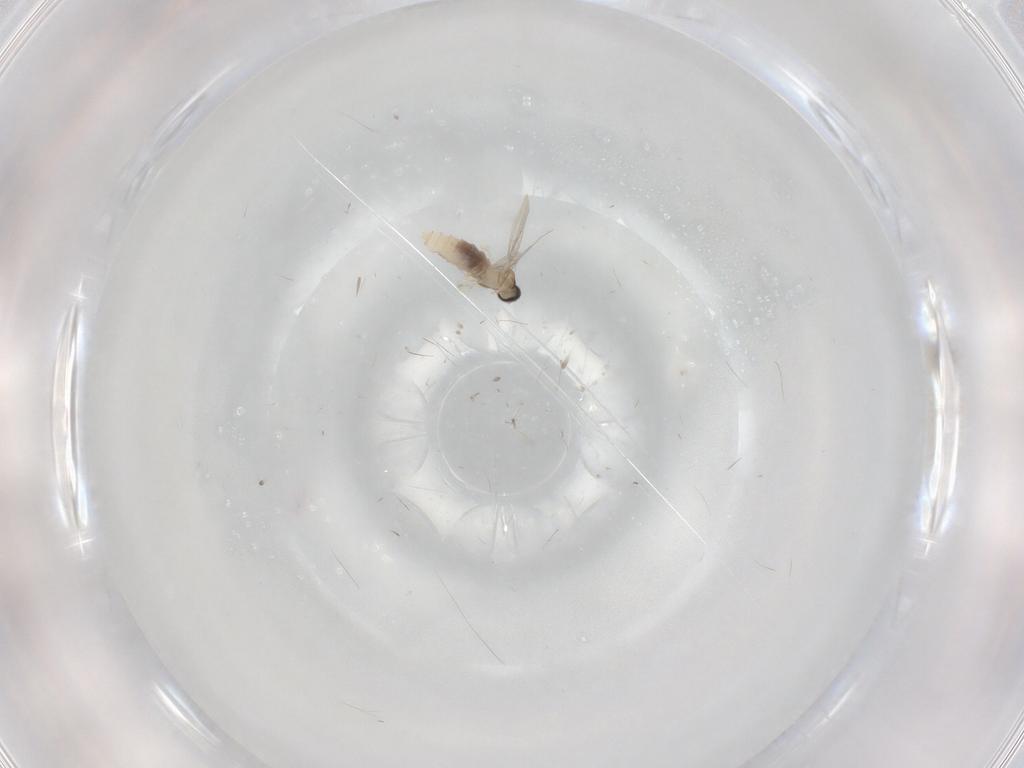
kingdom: Animalia
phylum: Arthropoda
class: Insecta
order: Diptera
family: Cecidomyiidae
